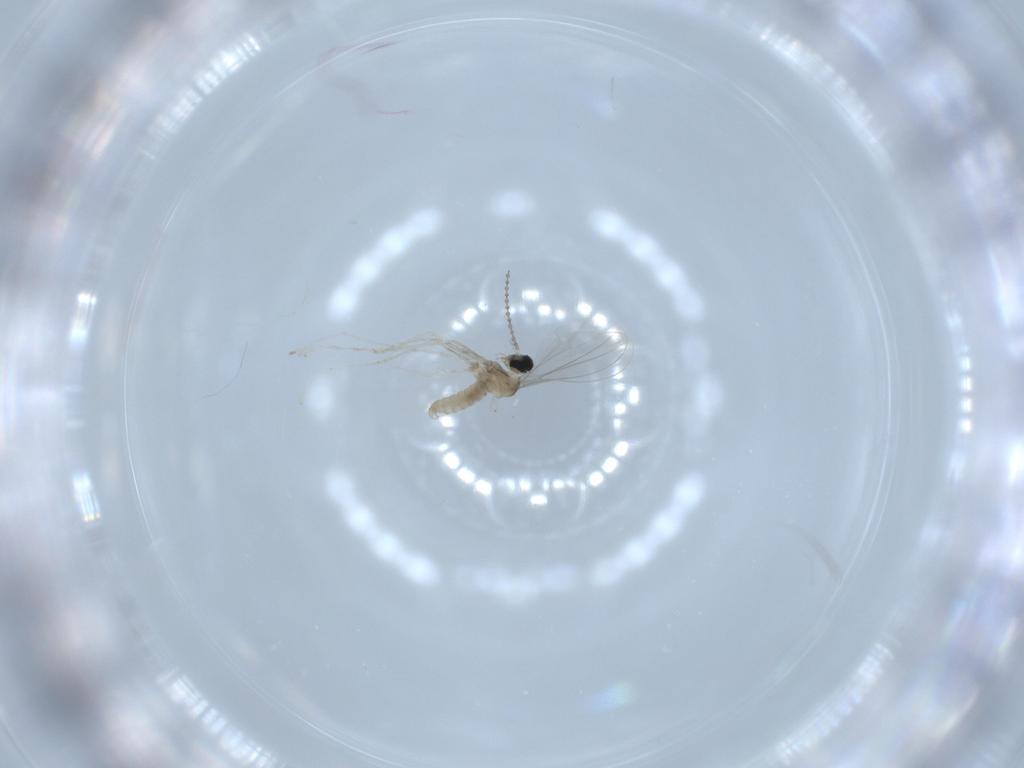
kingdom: Animalia
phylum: Arthropoda
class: Insecta
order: Diptera
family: Cecidomyiidae
